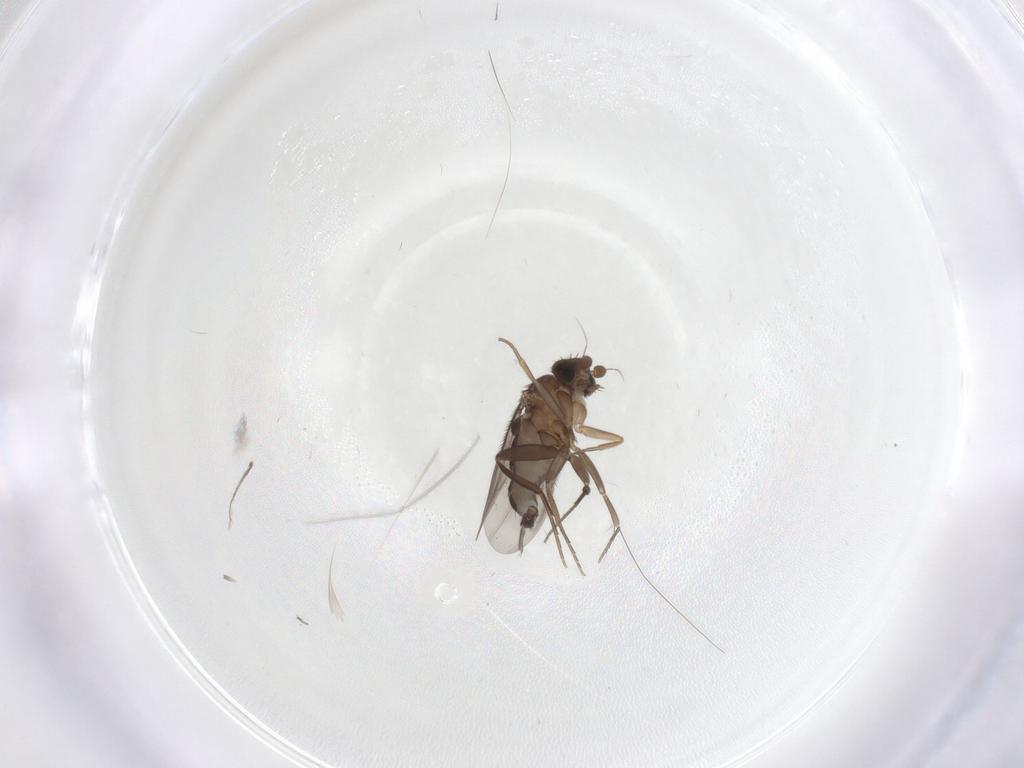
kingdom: Animalia
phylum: Arthropoda
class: Insecta
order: Diptera
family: Phoridae
